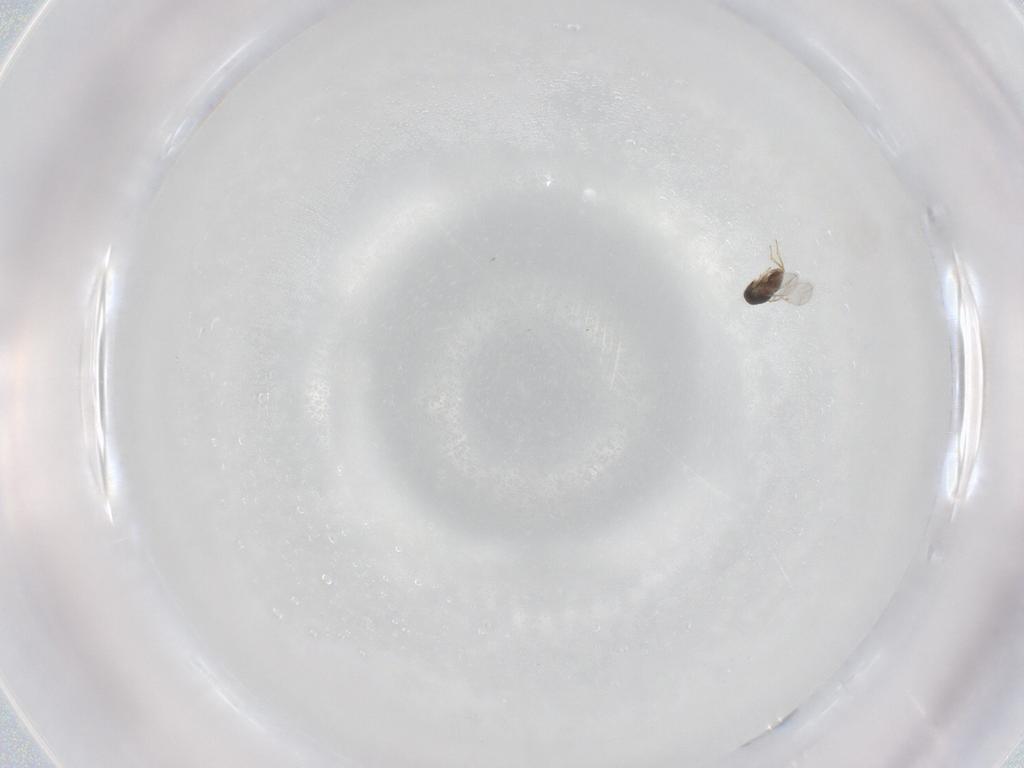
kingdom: Animalia
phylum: Arthropoda
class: Insecta
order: Hymenoptera
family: Encyrtidae
